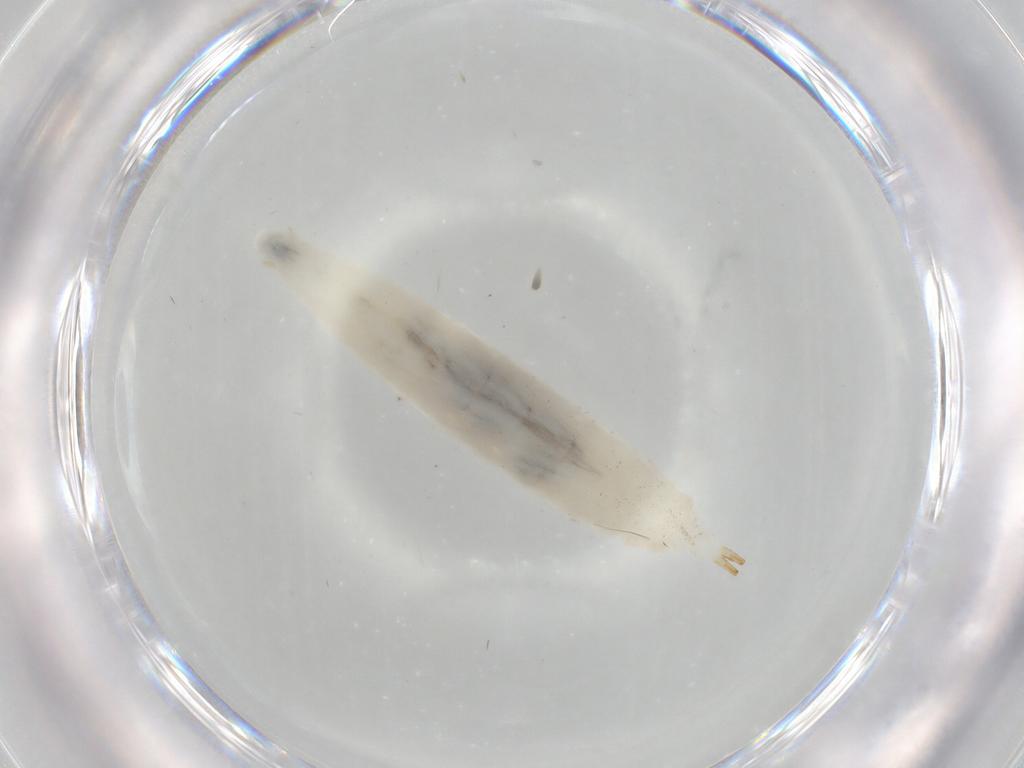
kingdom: Animalia
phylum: Arthropoda
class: Insecta
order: Diptera
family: Drosophilidae
